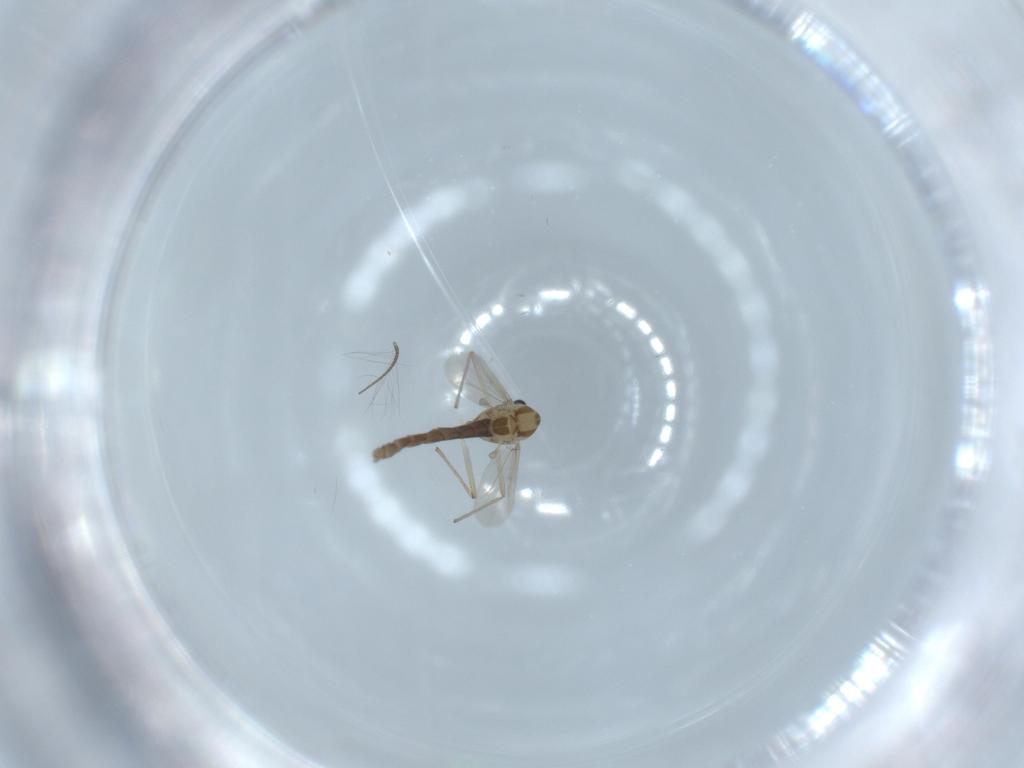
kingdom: Animalia
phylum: Arthropoda
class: Insecta
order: Diptera
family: Chironomidae
